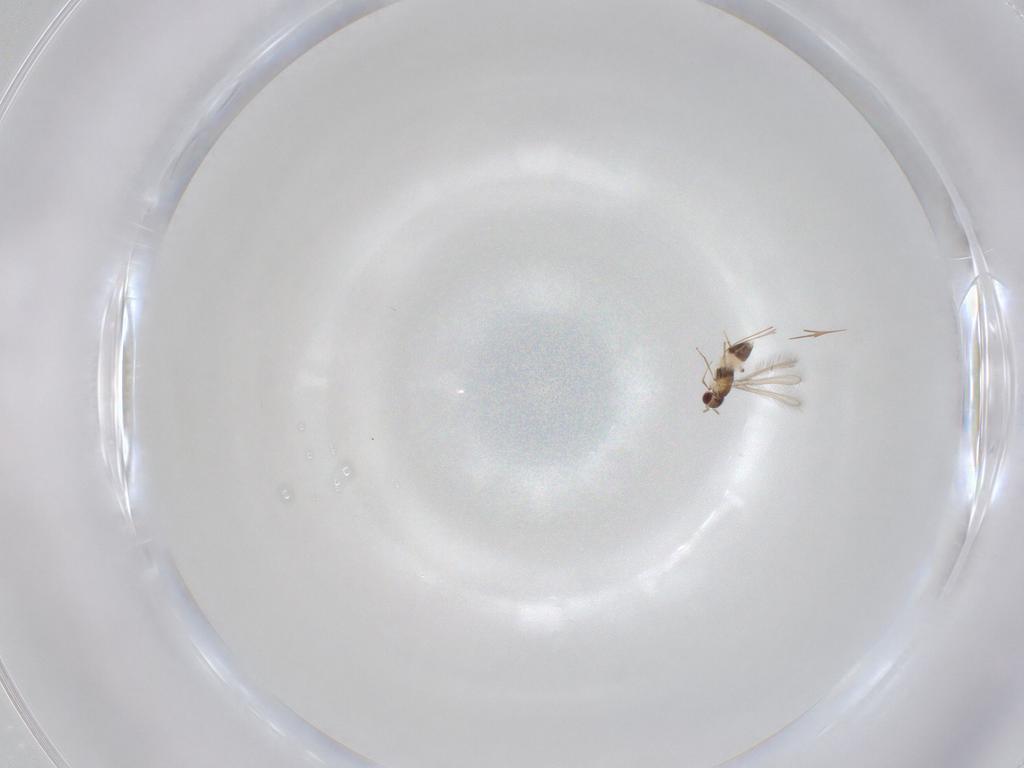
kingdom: Animalia
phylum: Arthropoda
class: Insecta
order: Hymenoptera
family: Mymaridae
